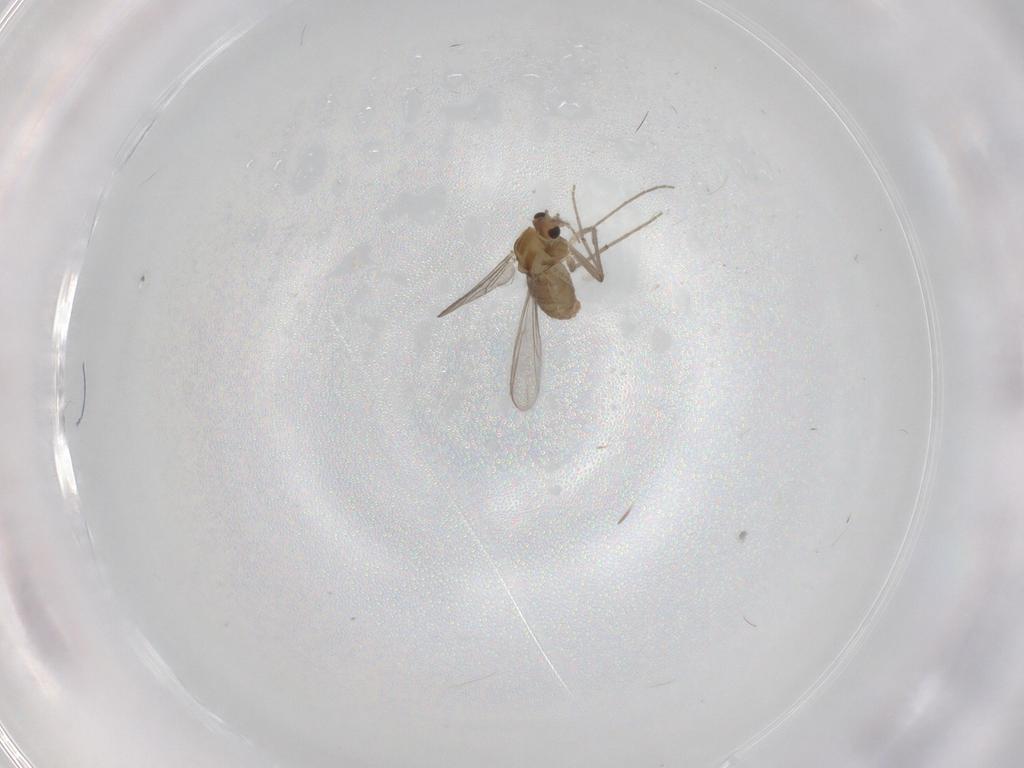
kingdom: Animalia
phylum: Arthropoda
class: Insecta
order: Diptera
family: Chironomidae
